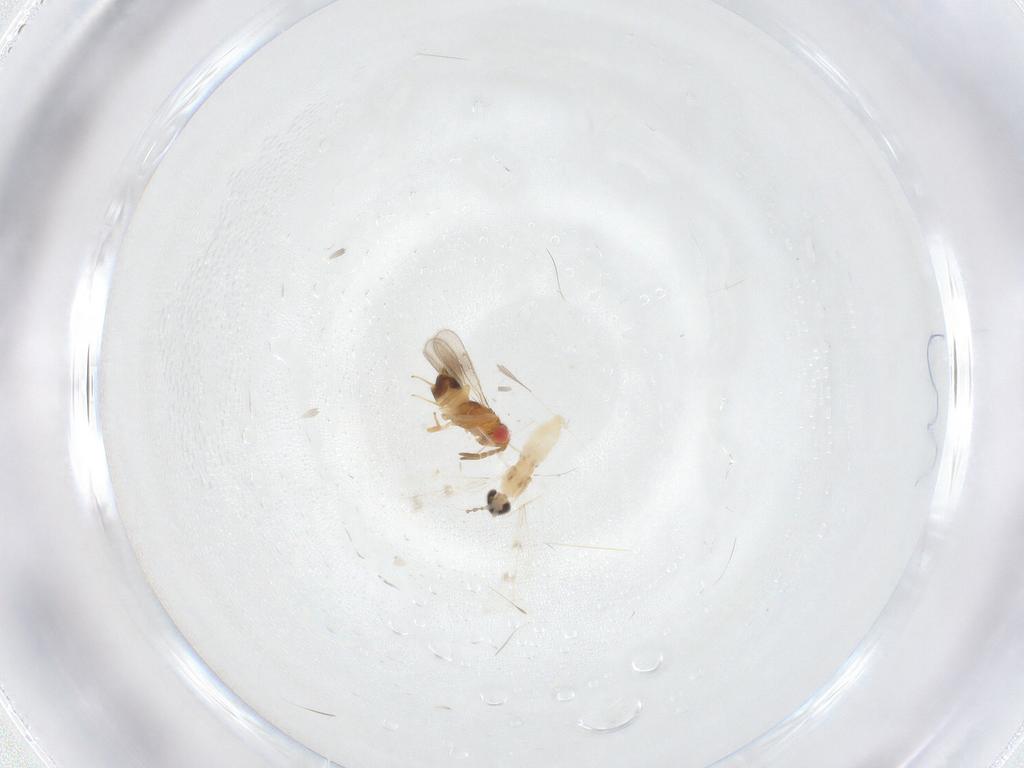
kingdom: Animalia
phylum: Arthropoda
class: Insecta
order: Diptera
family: Cecidomyiidae
